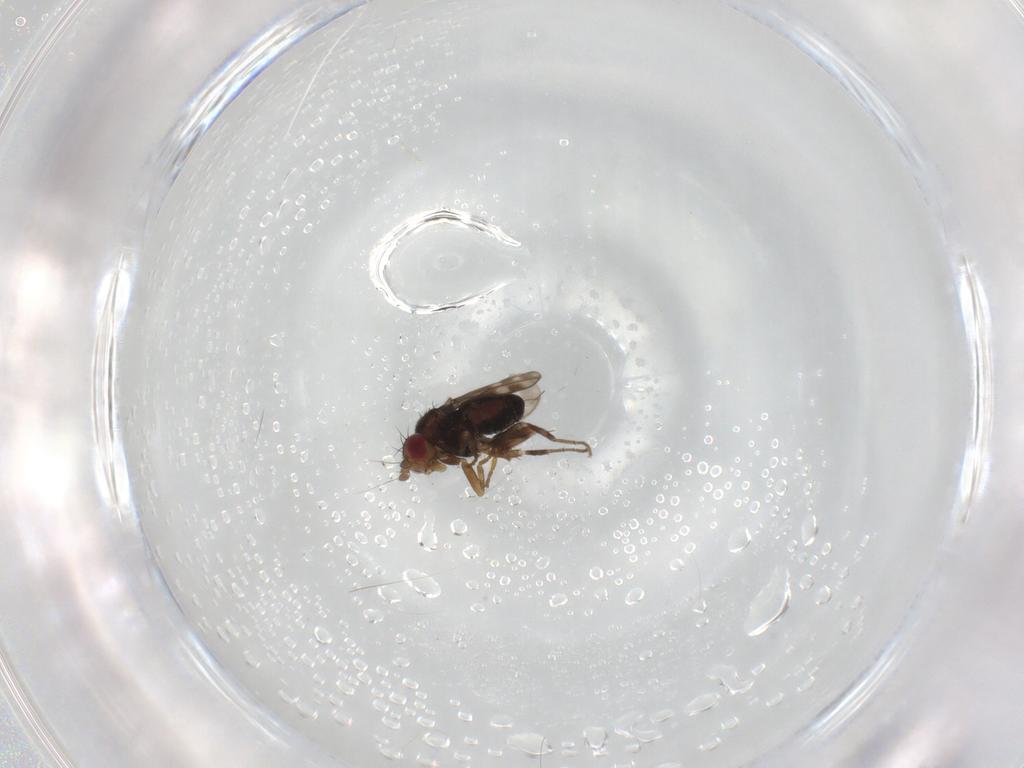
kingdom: Animalia
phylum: Arthropoda
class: Insecta
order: Diptera
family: Sphaeroceridae
